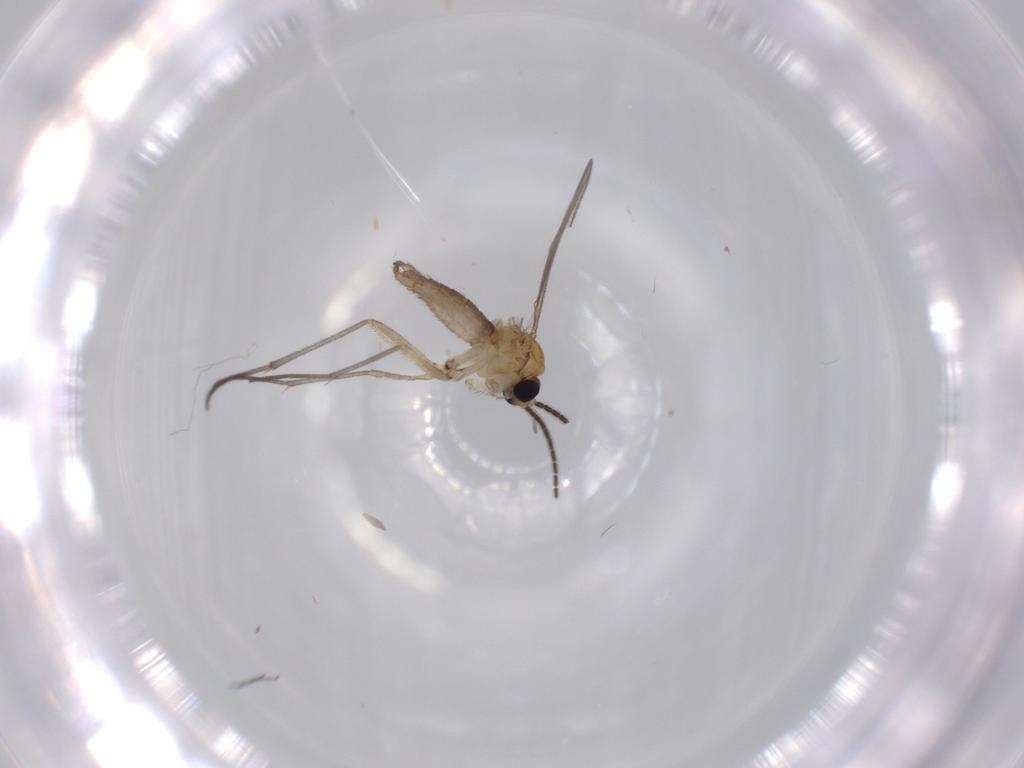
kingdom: Animalia
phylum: Arthropoda
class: Insecta
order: Diptera
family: Sciaridae
